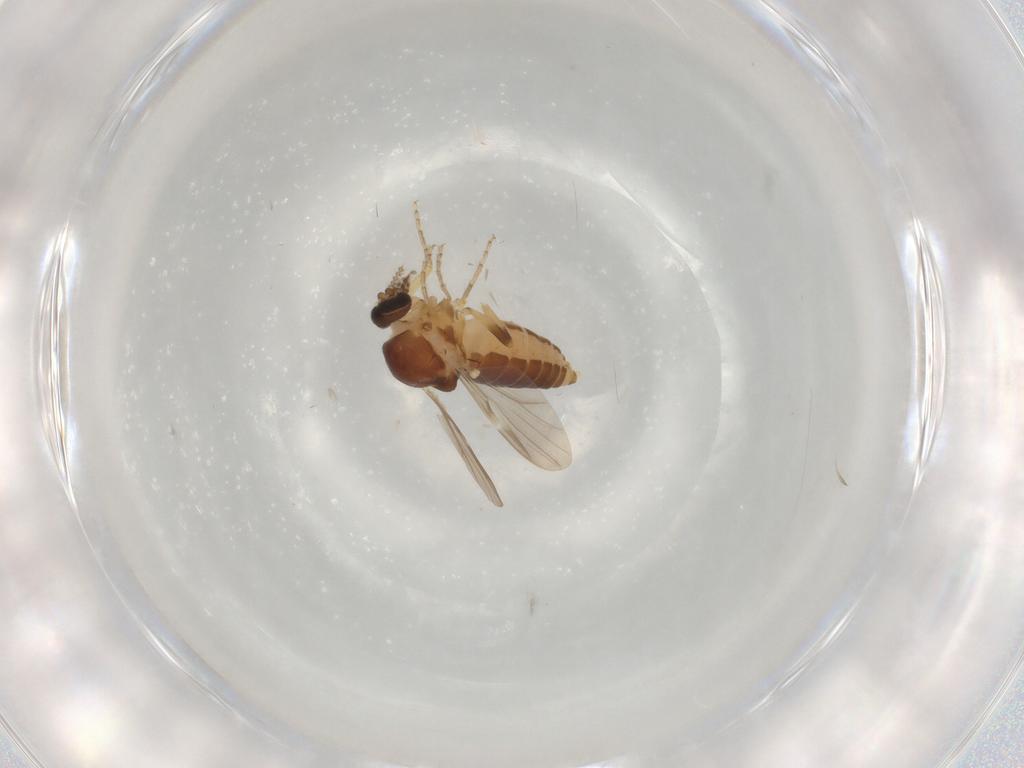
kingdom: Animalia
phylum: Arthropoda
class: Insecta
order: Diptera
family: Ceratopogonidae
